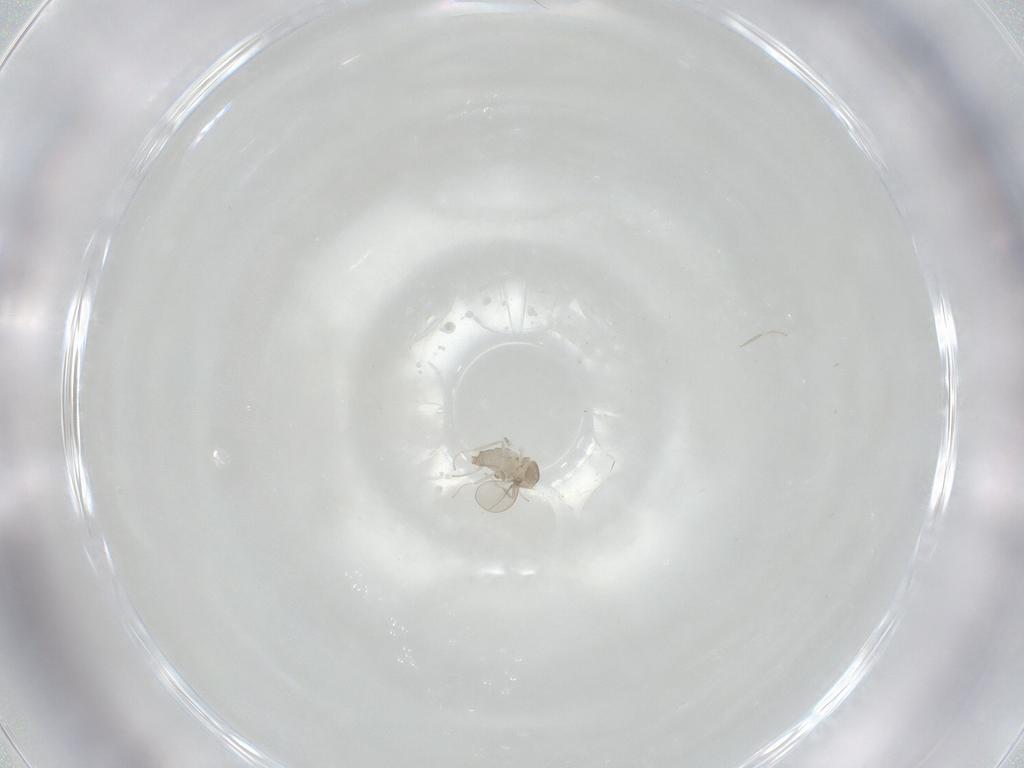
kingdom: Animalia
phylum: Arthropoda
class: Insecta
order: Diptera
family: Cecidomyiidae
